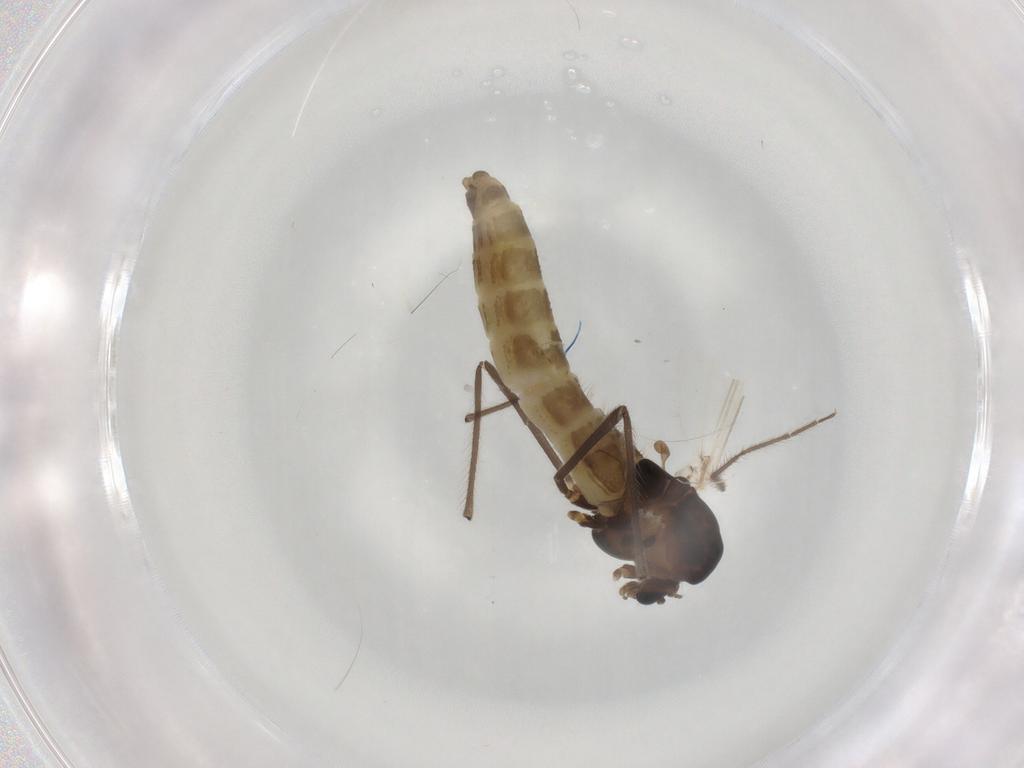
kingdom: Animalia
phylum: Arthropoda
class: Insecta
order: Diptera
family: Chironomidae
